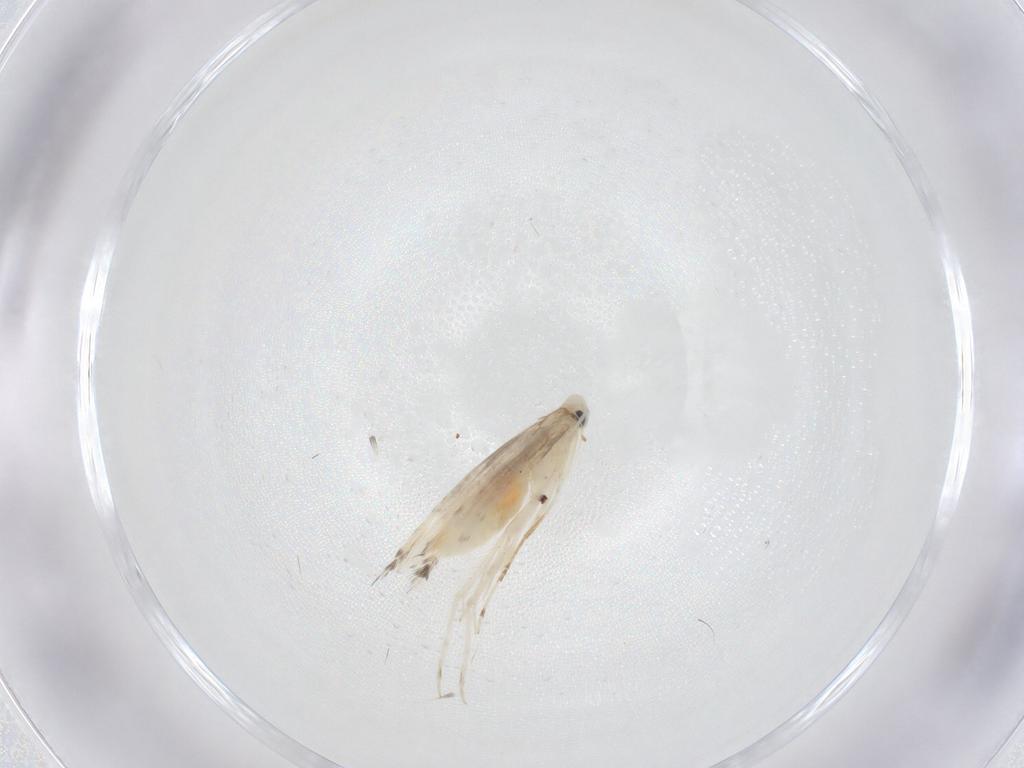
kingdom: Animalia
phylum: Arthropoda
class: Insecta
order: Lepidoptera
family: Gracillariidae
